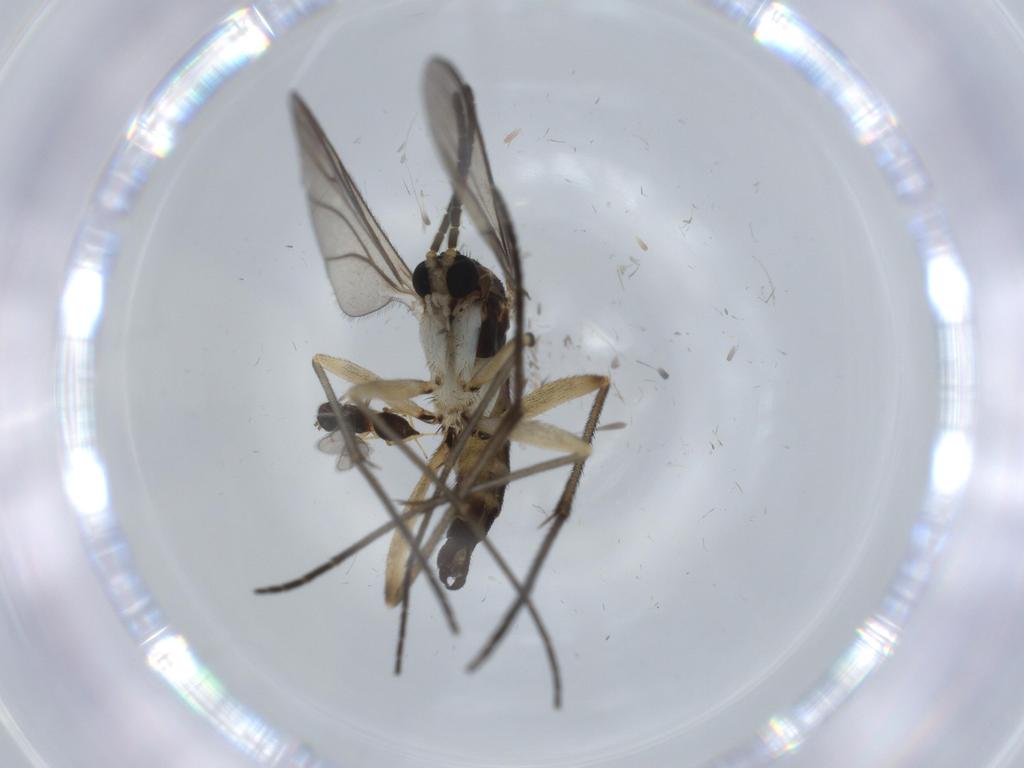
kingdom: Animalia
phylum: Arthropoda
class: Insecta
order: Diptera
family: Sciaridae
